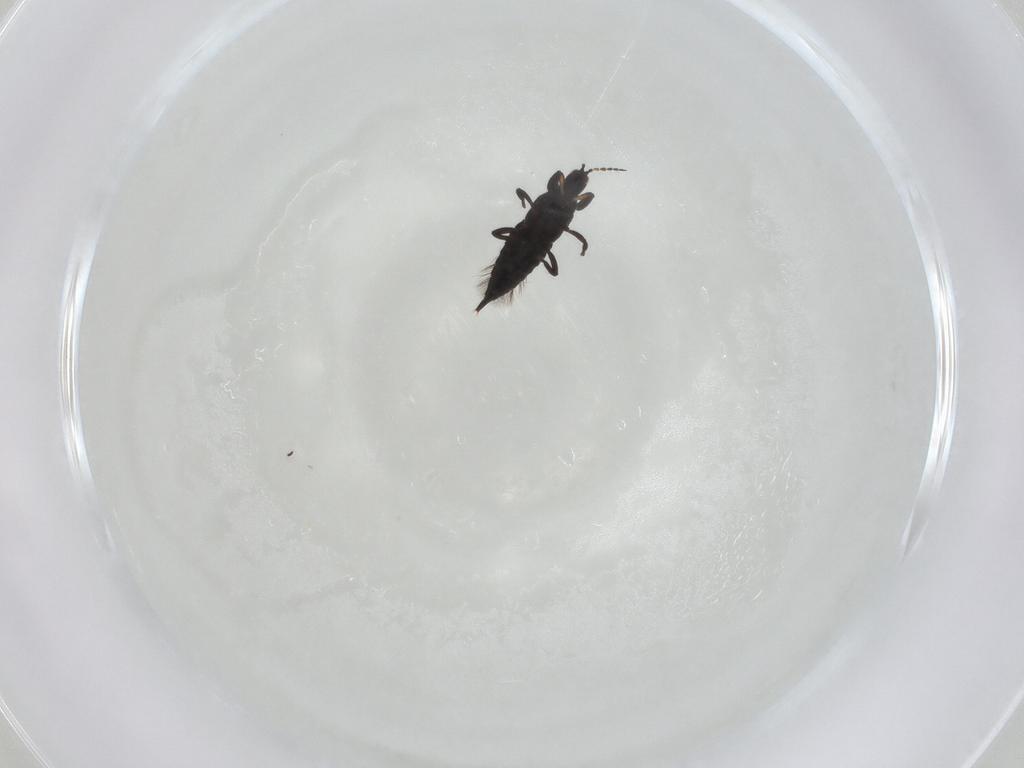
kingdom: Animalia
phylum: Arthropoda
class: Insecta
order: Thysanoptera
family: Phlaeothripidae
